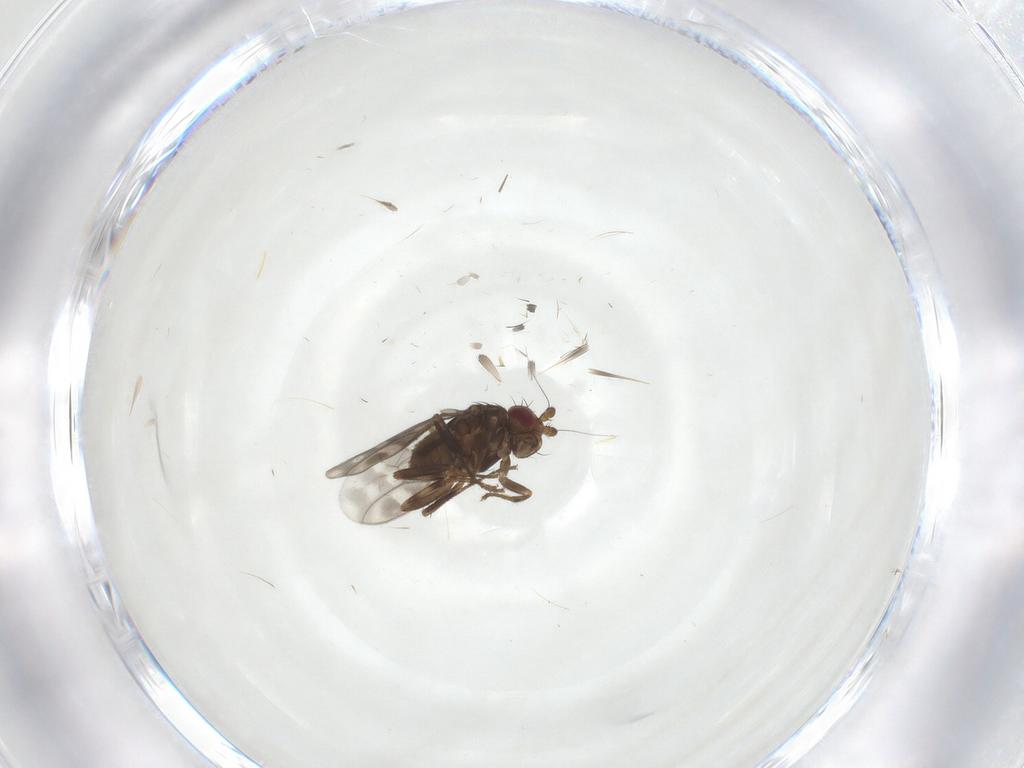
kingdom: Animalia
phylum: Arthropoda
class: Insecta
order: Diptera
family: Sphaeroceridae
